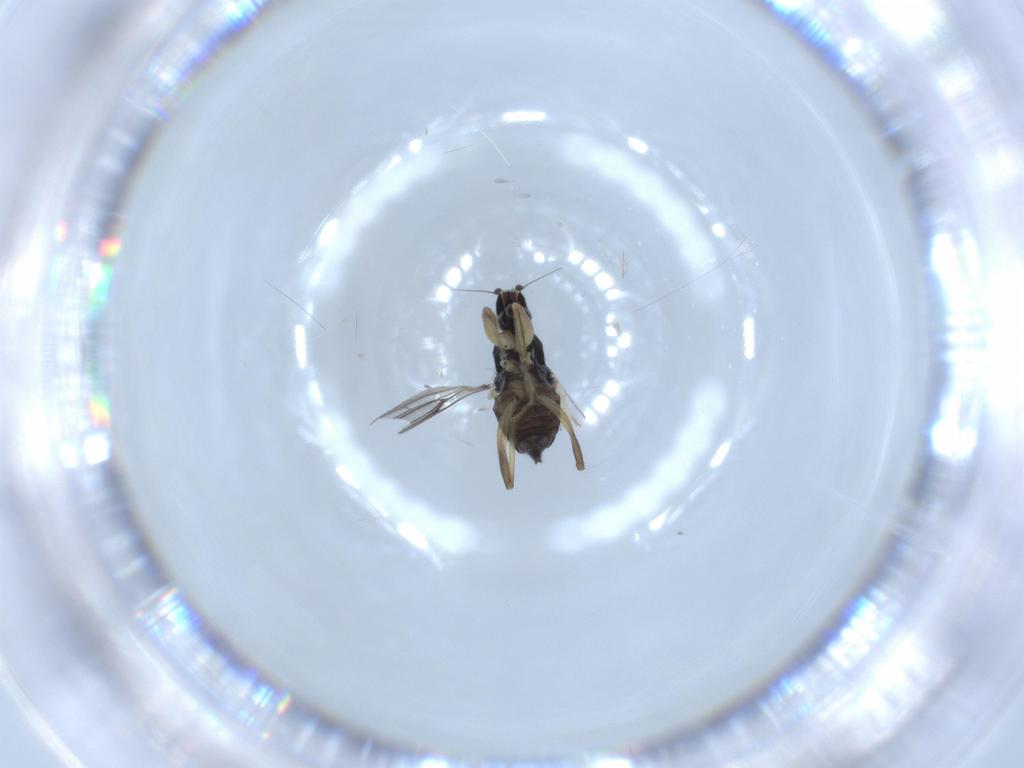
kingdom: Animalia
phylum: Arthropoda
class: Insecta
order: Diptera
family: Hybotidae
